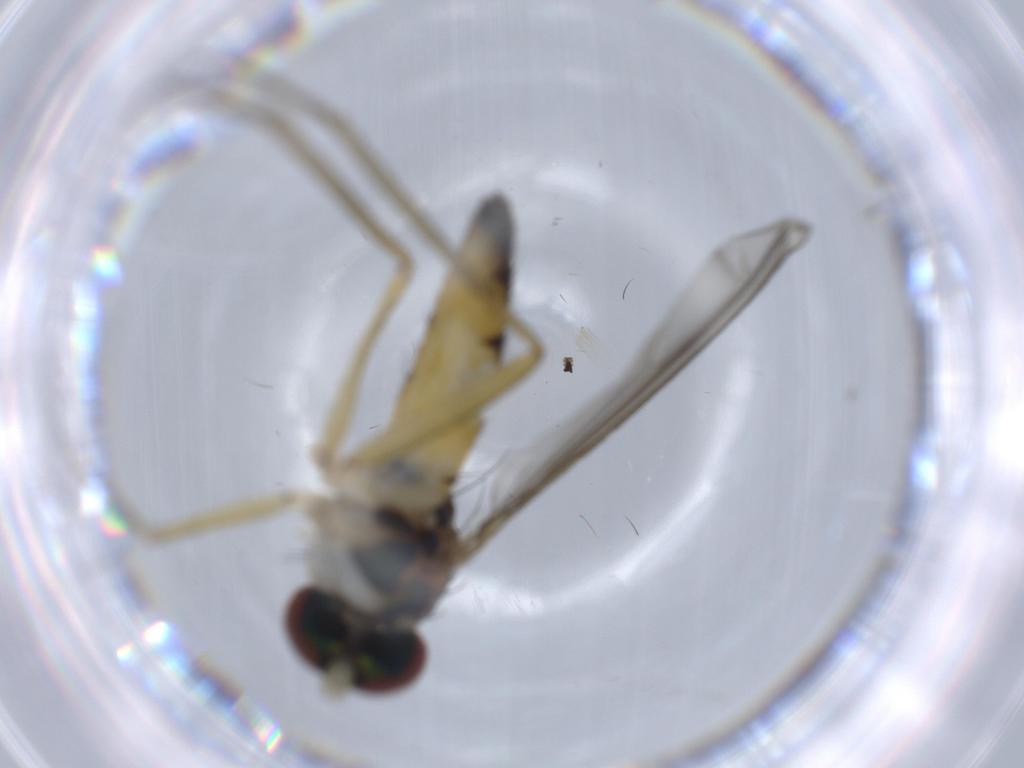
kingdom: Animalia
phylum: Arthropoda
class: Insecta
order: Diptera
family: Dolichopodidae
